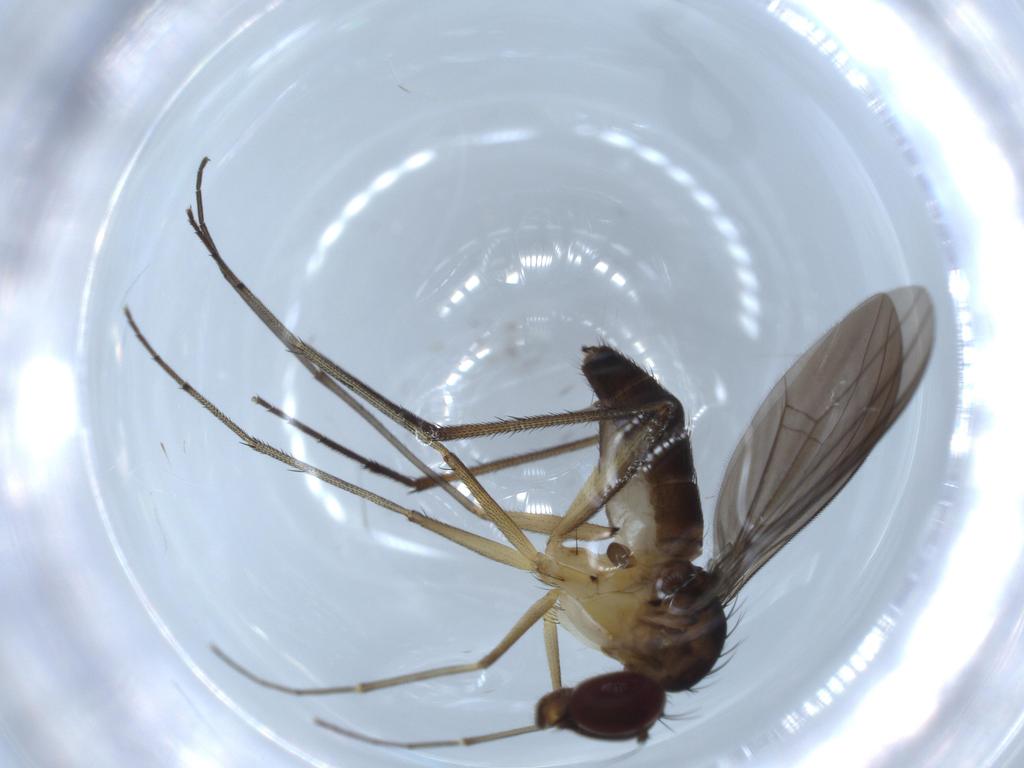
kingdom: Animalia
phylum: Arthropoda
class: Insecta
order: Diptera
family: Dolichopodidae
